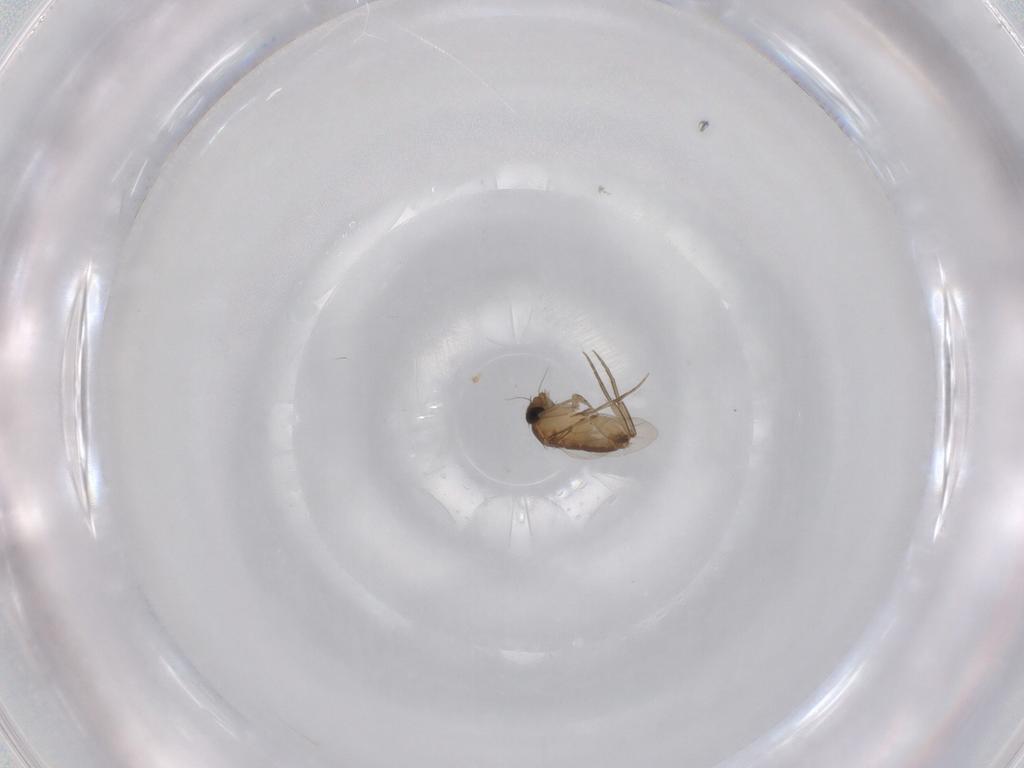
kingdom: Animalia
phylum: Arthropoda
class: Insecta
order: Diptera
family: Phoridae
